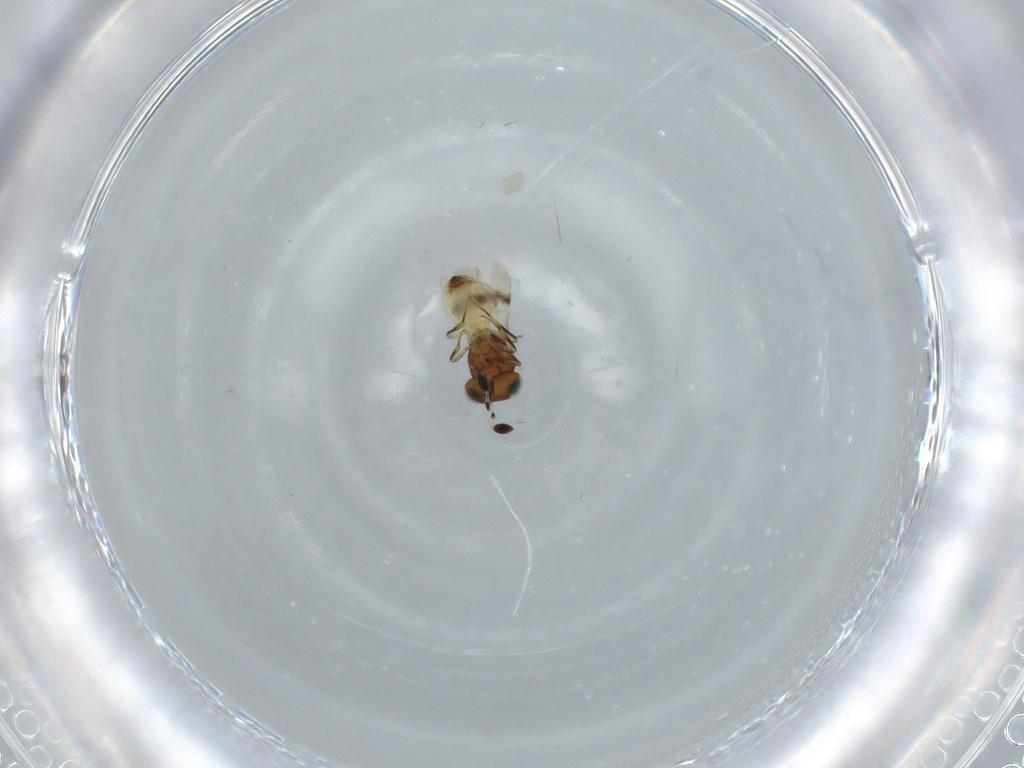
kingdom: Animalia
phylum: Arthropoda
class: Arachnida
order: Araneae
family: Pholcidae
